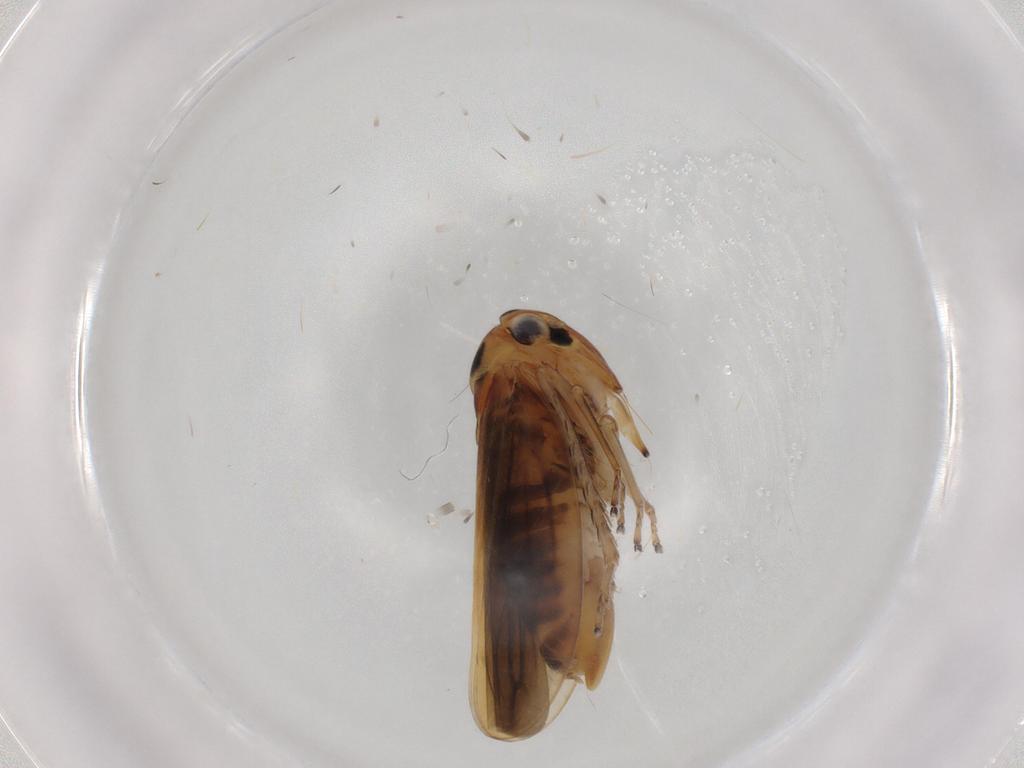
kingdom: Animalia
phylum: Arthropoda
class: Insecta
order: Hemiptera
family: Cicadellidae
